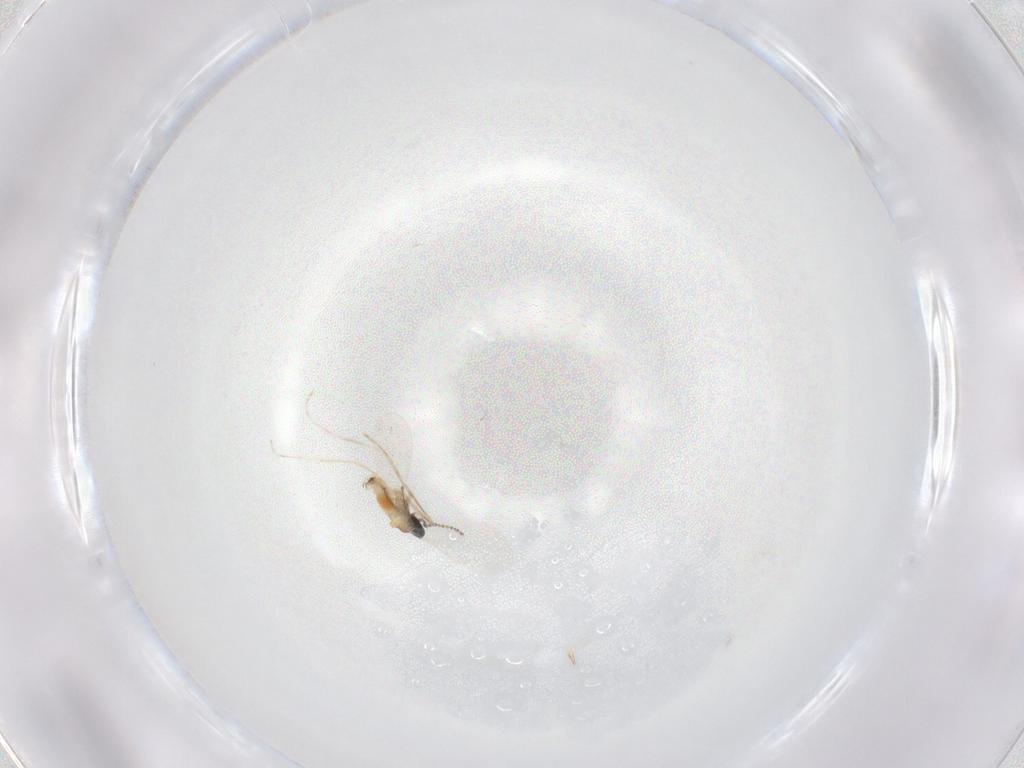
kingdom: Animalia
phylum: Arthropoda
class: Insecta
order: Diptera
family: Cecidomyiidae
